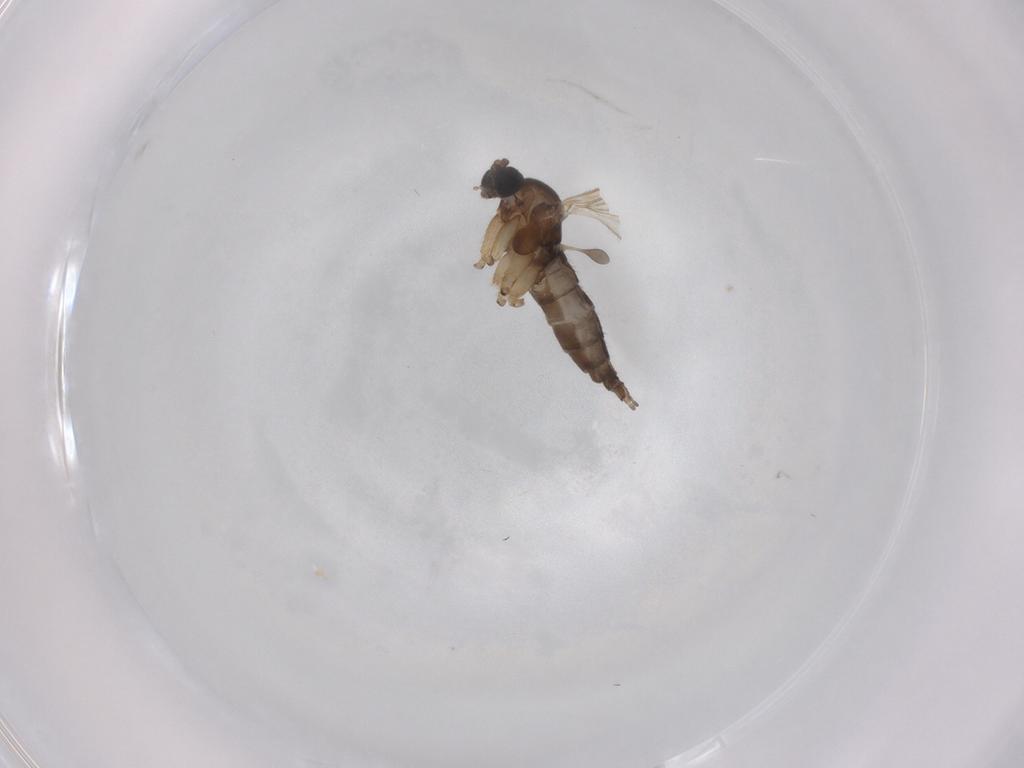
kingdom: Animalia
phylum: Arthropoda
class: Insecta
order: Diptera
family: Sciaridae
